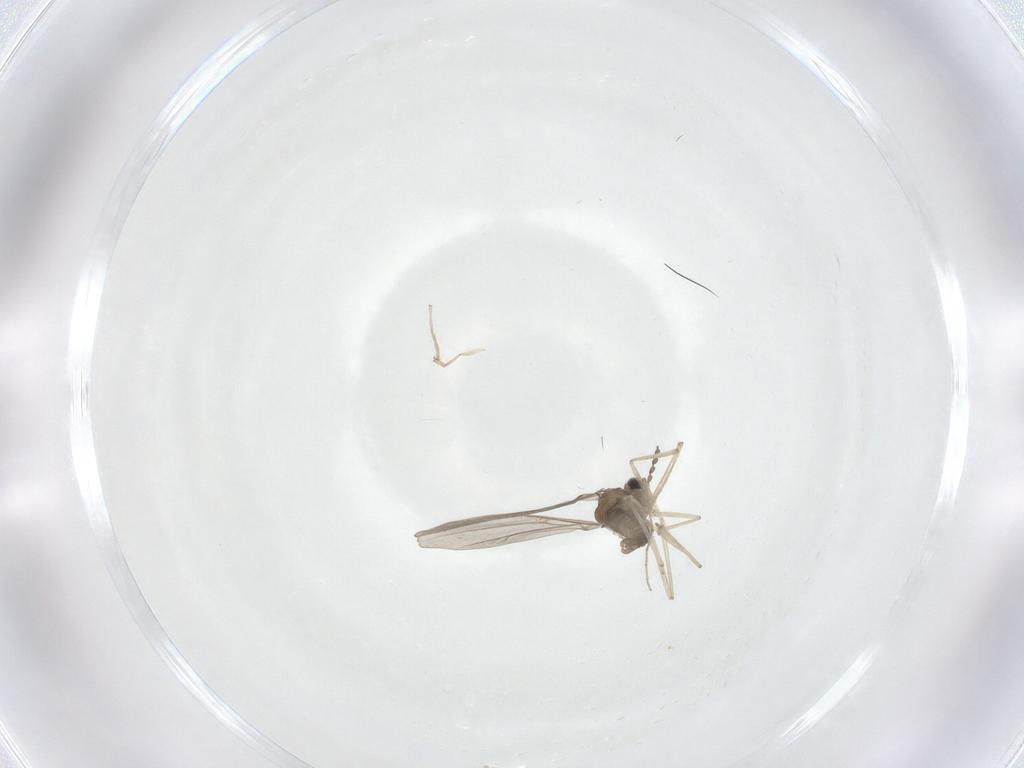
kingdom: Animalia
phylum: Arthropoda
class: Insecta
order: Diptera
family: Cecidomyiidae
